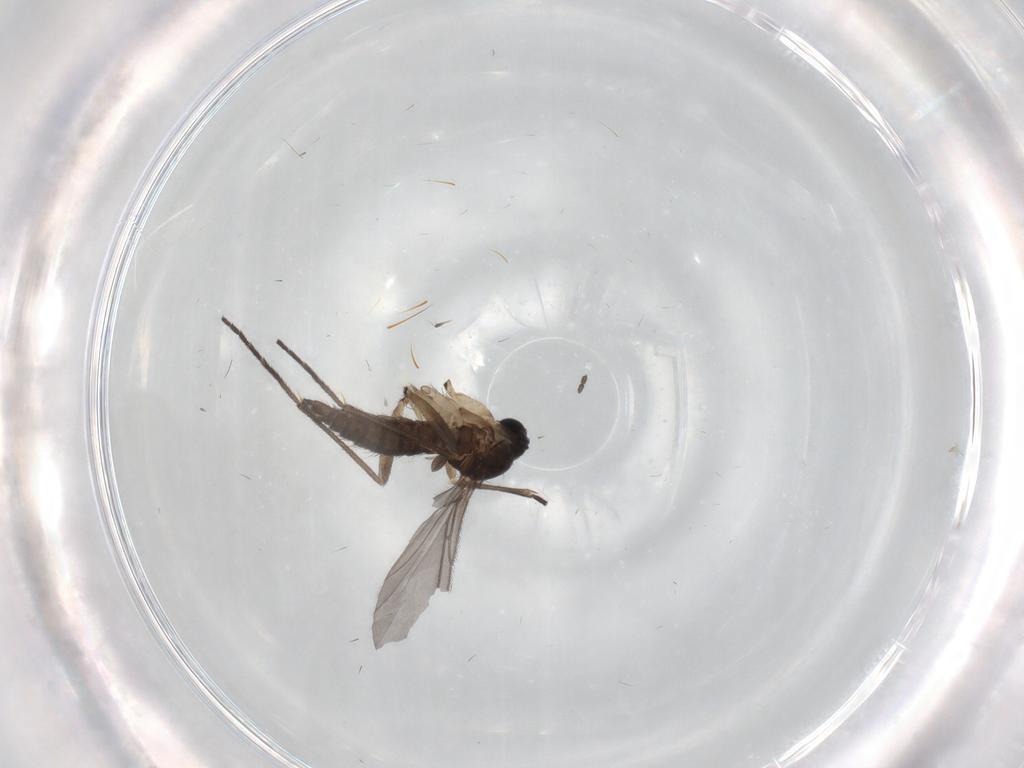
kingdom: Animalia
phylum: Arthropoda
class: Insecta
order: Diptera
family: Sciaridae
